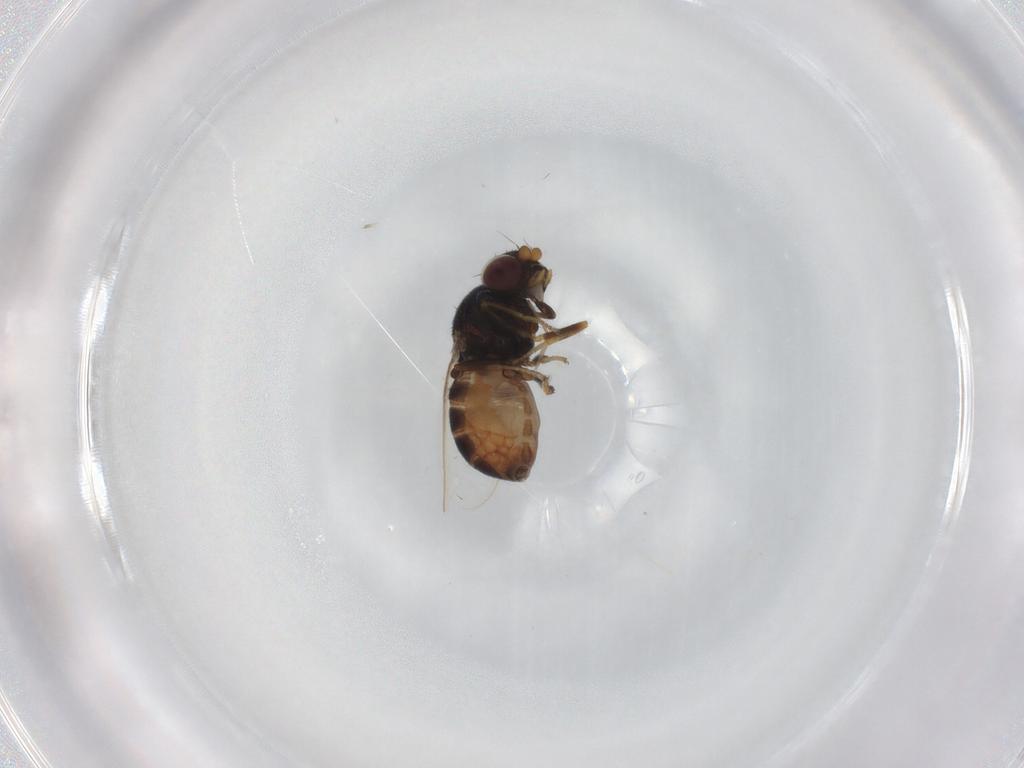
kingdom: Animalia
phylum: Arthropoda
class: Insecta
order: Diptera
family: Chloropidae
